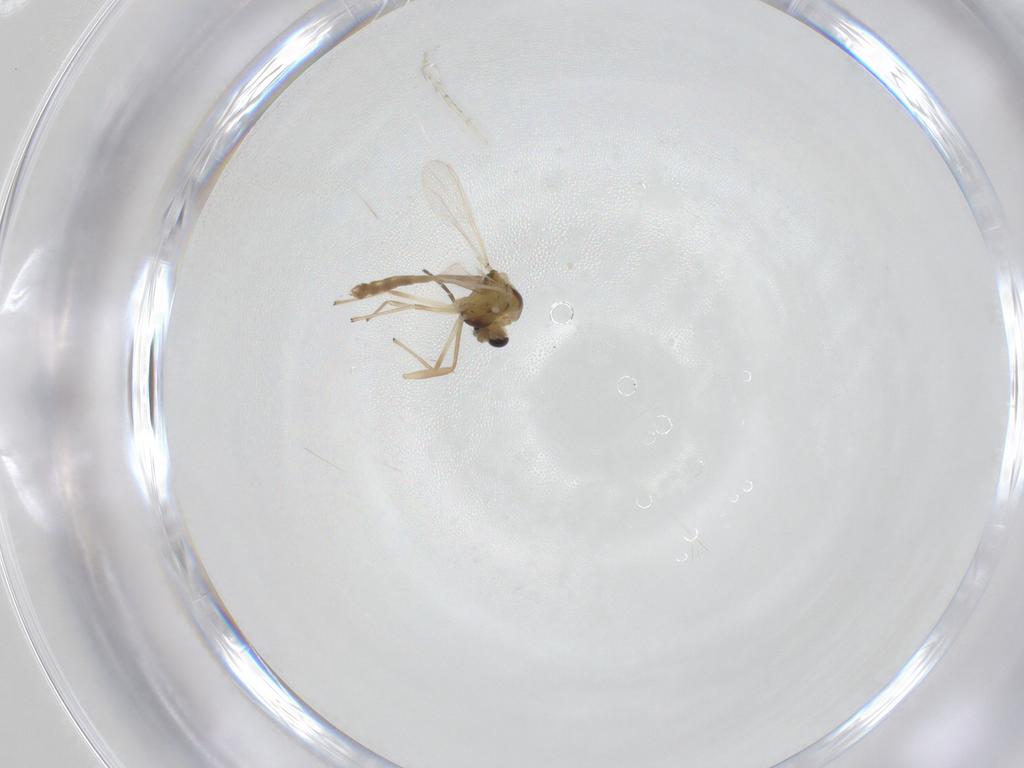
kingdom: Animalia
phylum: Arthropoda
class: Insecta
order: Diptera
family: Chironomidae
